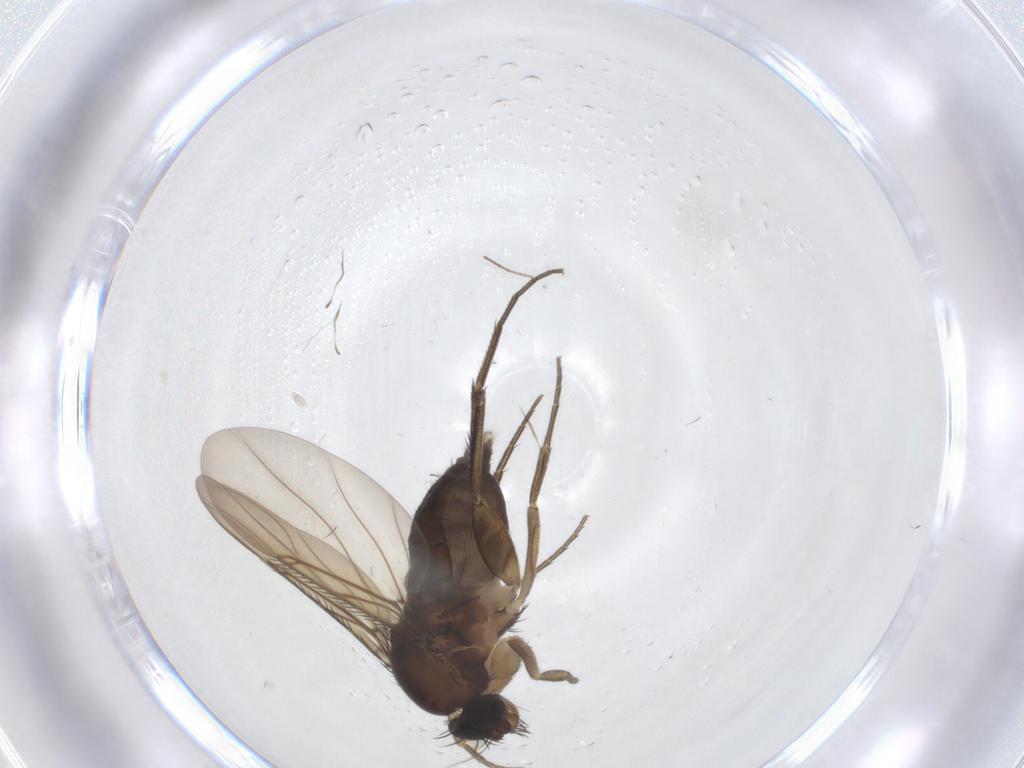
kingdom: Animalia
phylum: Arthropoda
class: Insecta
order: Diptera
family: Phoridae
